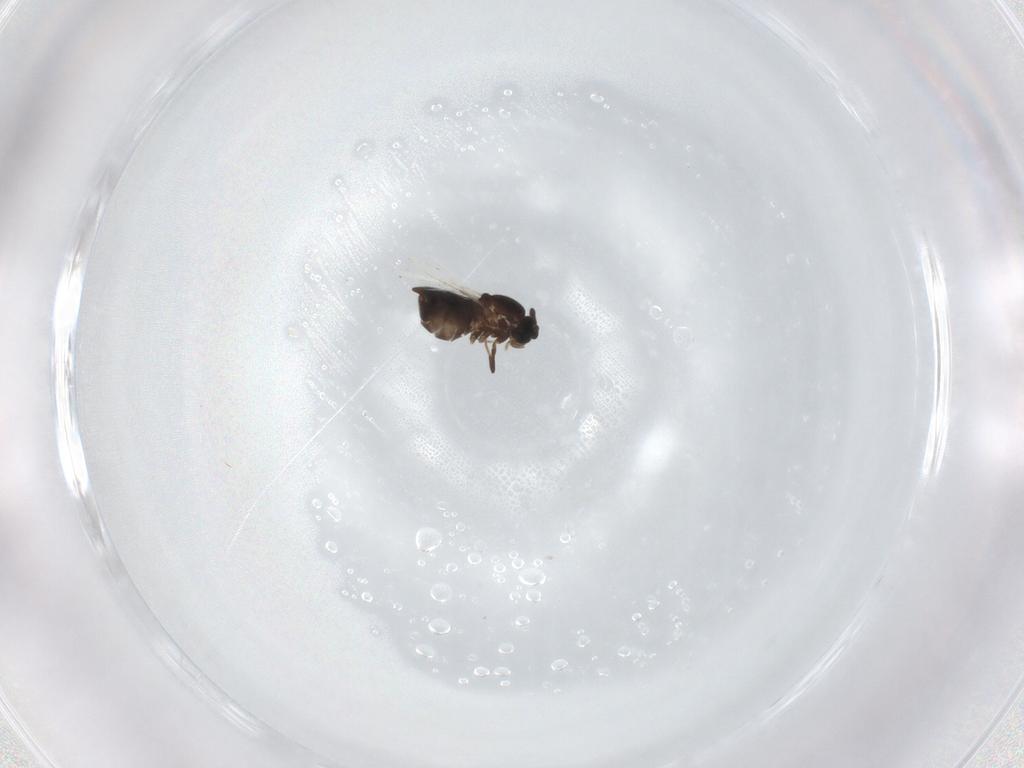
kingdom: Animalia
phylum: Arthropoda
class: Insecta
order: Diptera
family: Scatopsidae
